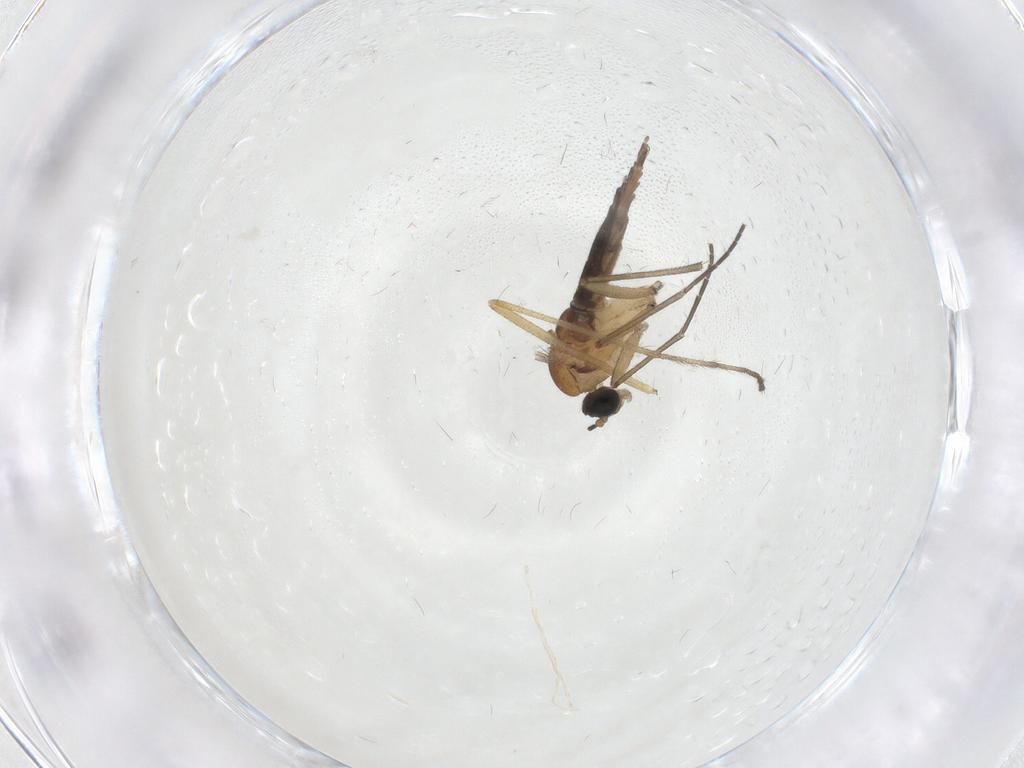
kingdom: Animalia
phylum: Arthropoda
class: Insecta
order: Diptera
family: Sciaridae
